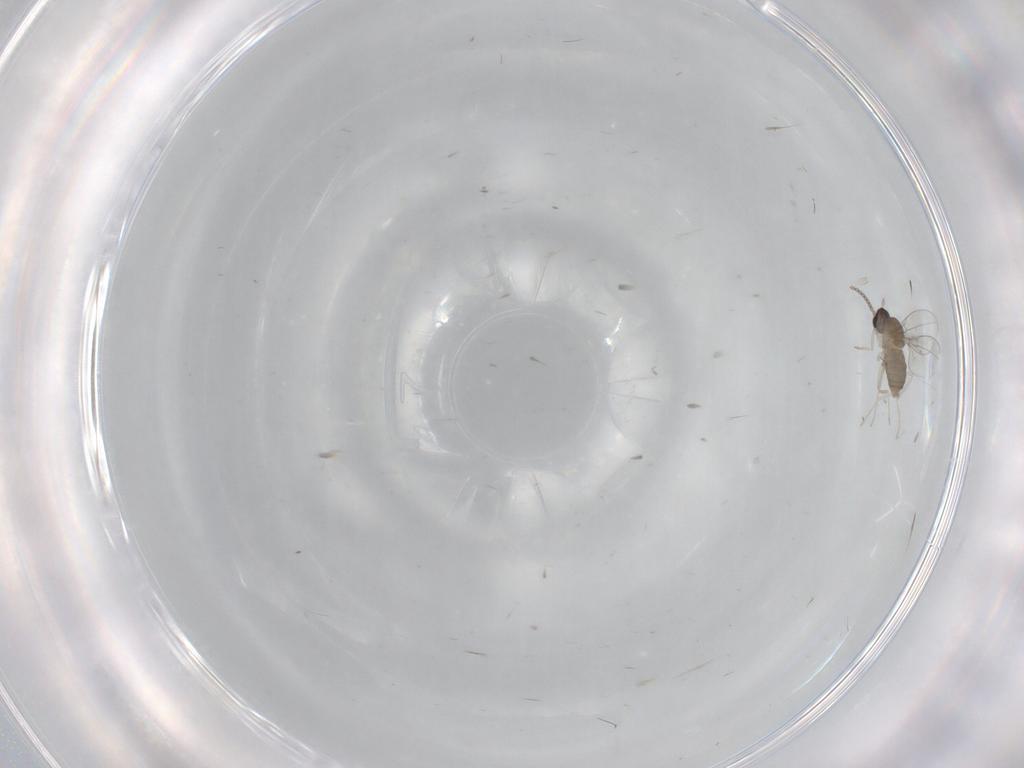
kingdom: Animalia
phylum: Arthropoda
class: Insecta
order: Diptera
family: Cecidomyiidae
